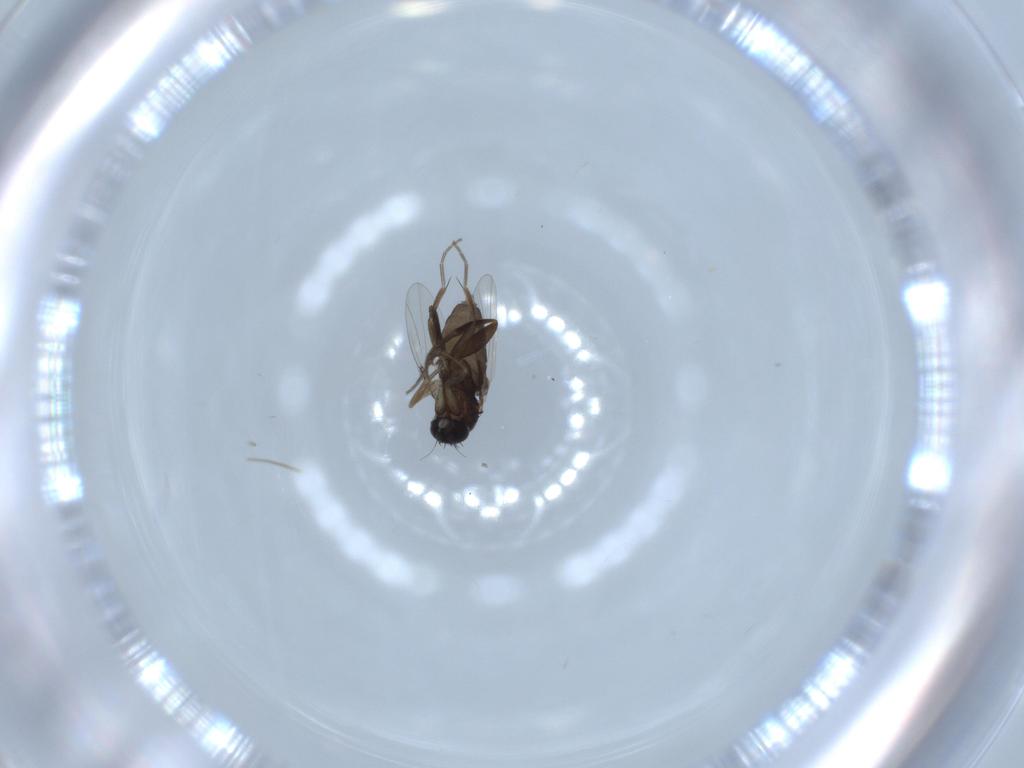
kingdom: Animalia
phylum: Arthropoda
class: Insecta
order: Diptera
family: Phoridae
